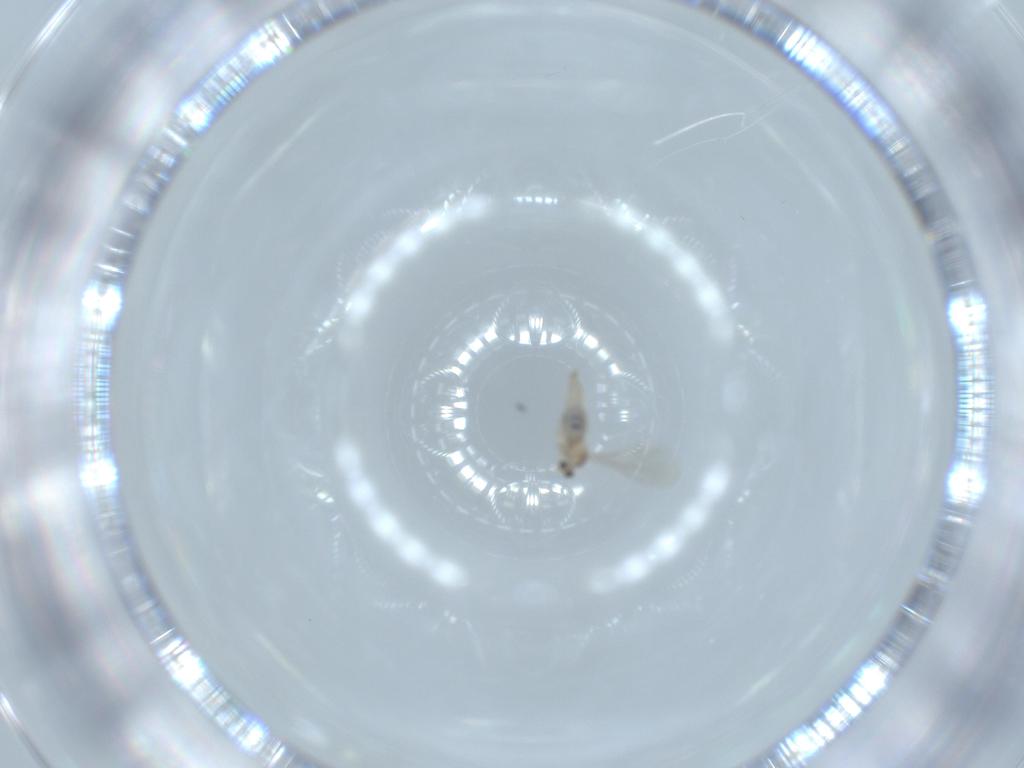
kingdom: Animalia
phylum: Arthropoda
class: Insecta
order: Diptera
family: Cecidomyiidae
